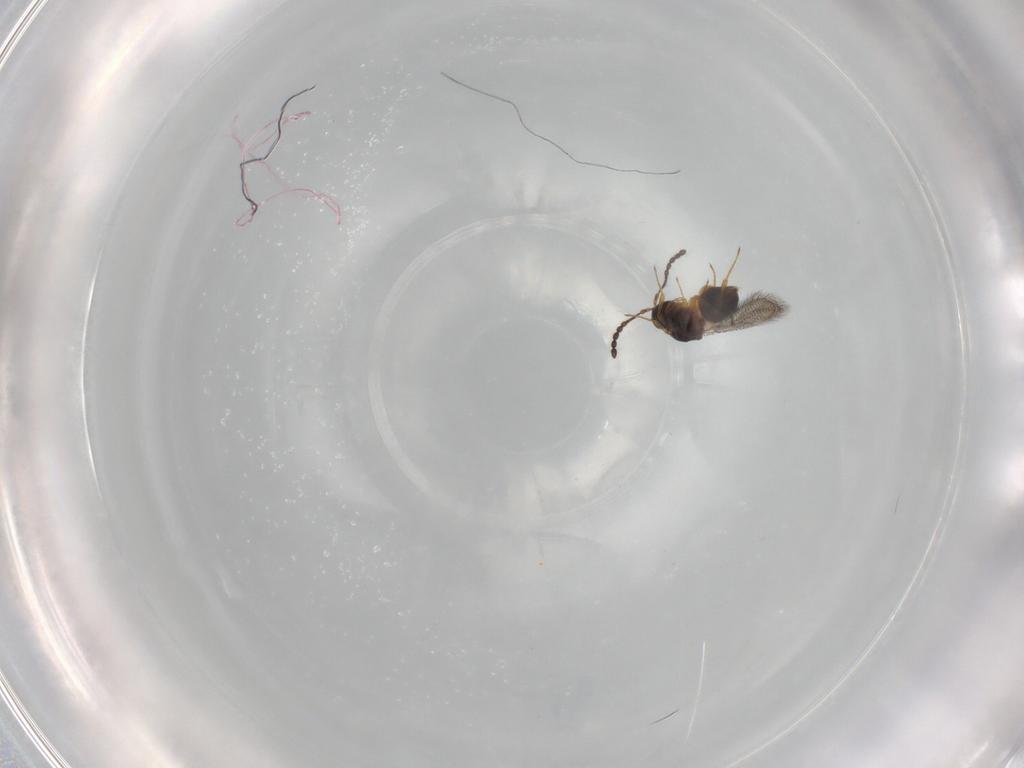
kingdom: Animalia
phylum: Arthropoda
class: Insecta
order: Hymenoptera
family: Figitidae
